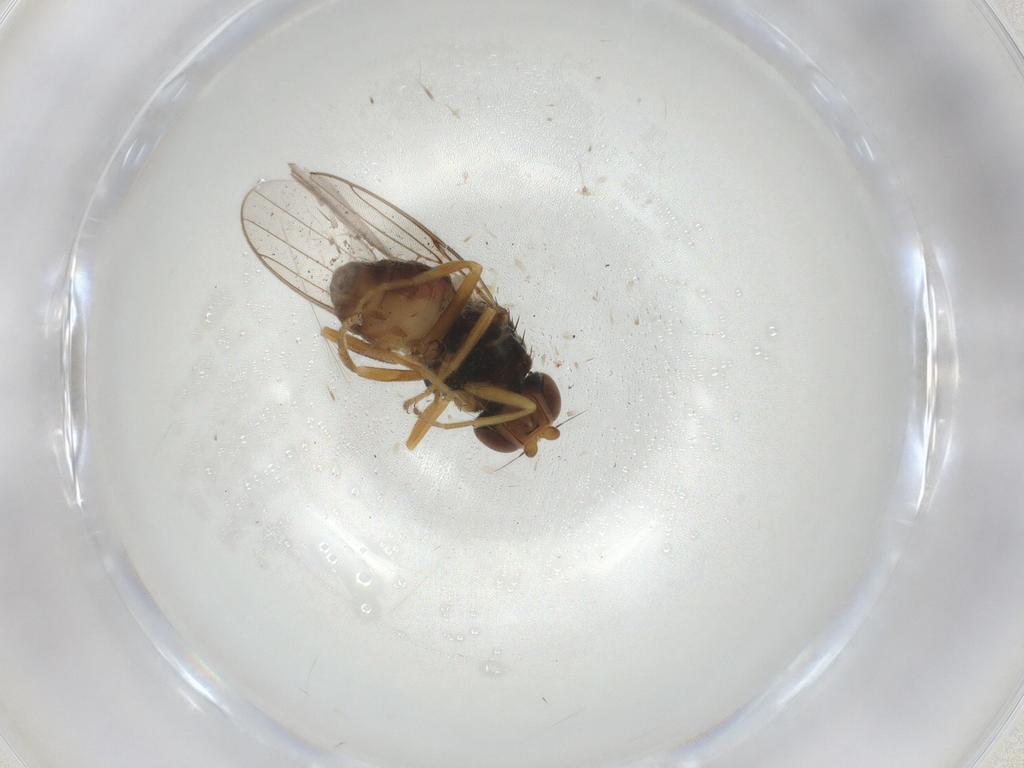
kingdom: Animalia
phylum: Arthropoda
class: Insecta
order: Diptera
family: Chloropidae
